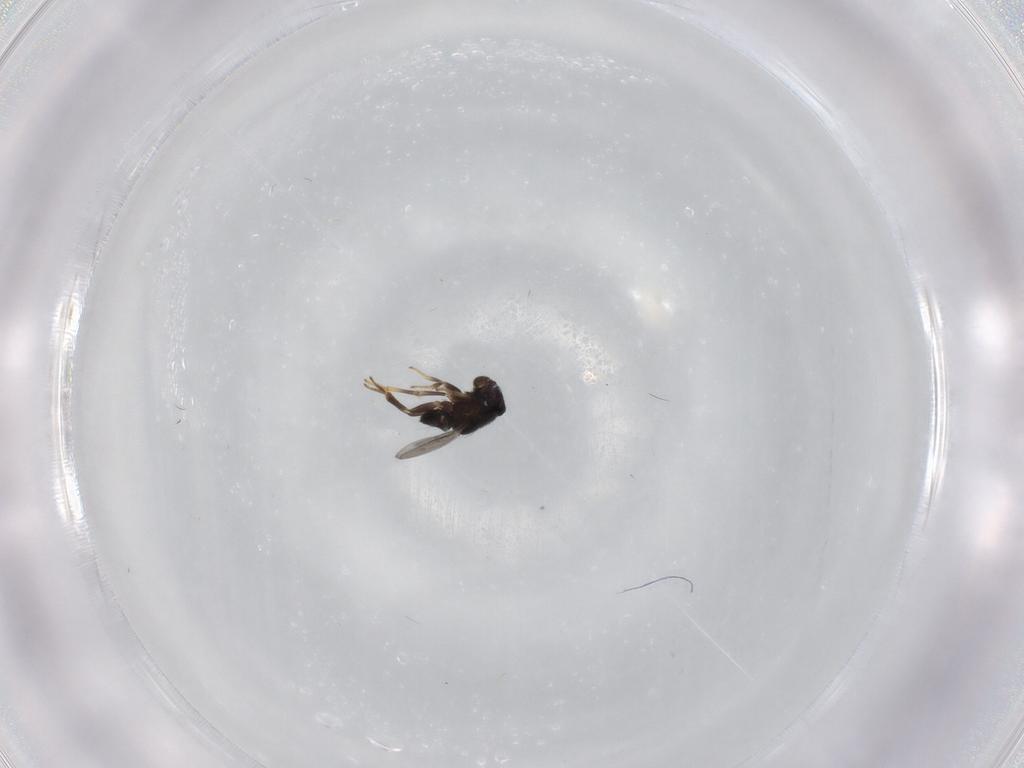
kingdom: Animalia
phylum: Arthropoda
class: Insecta
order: Hymenoptera
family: Encyrtidae
